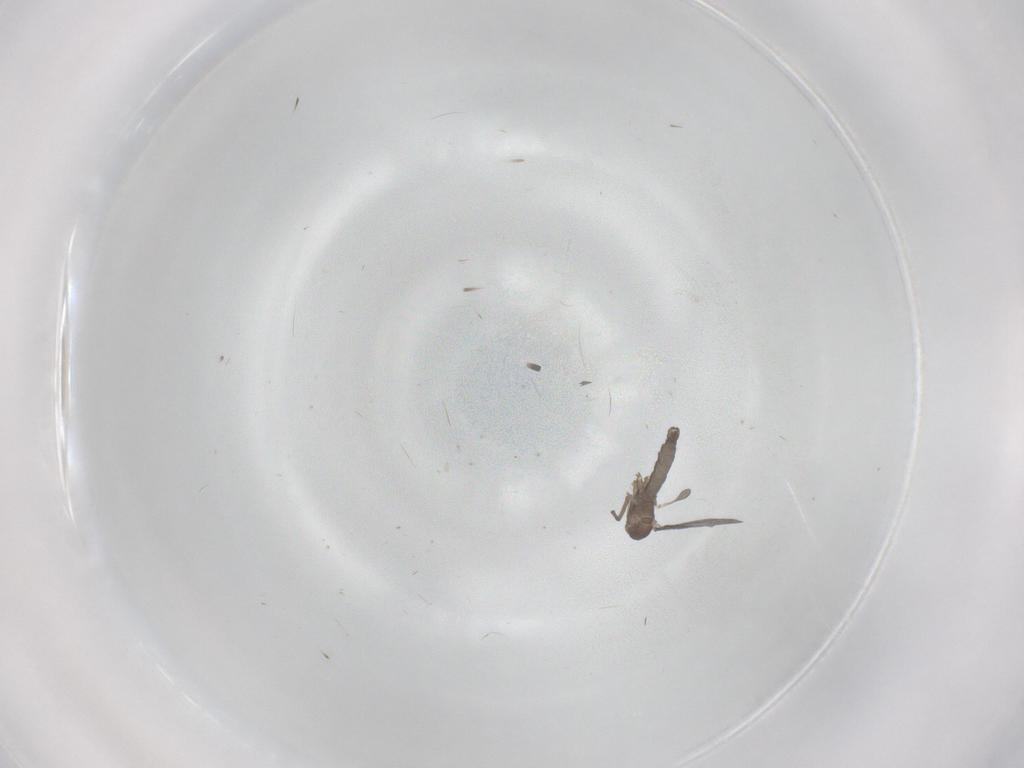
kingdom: Animalia
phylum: Arthropoda
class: Insecta
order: Diptera
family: Sciaridae
